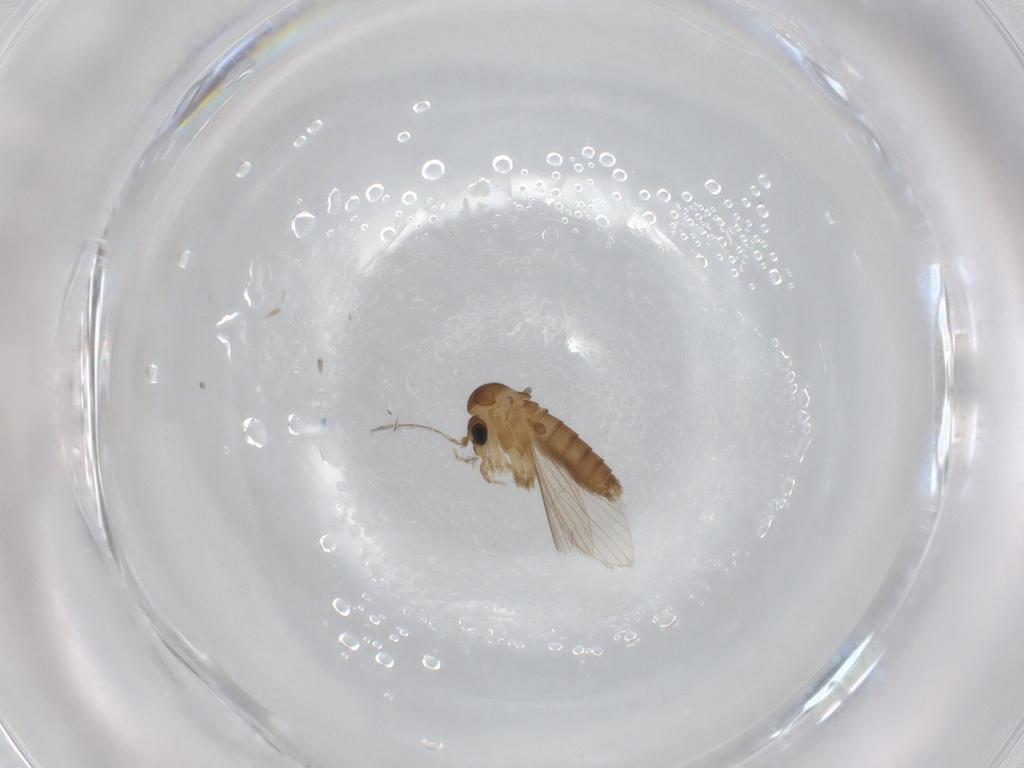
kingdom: Animalia
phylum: Arthropoda
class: Insecta
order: Diptera
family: Psychodidae
